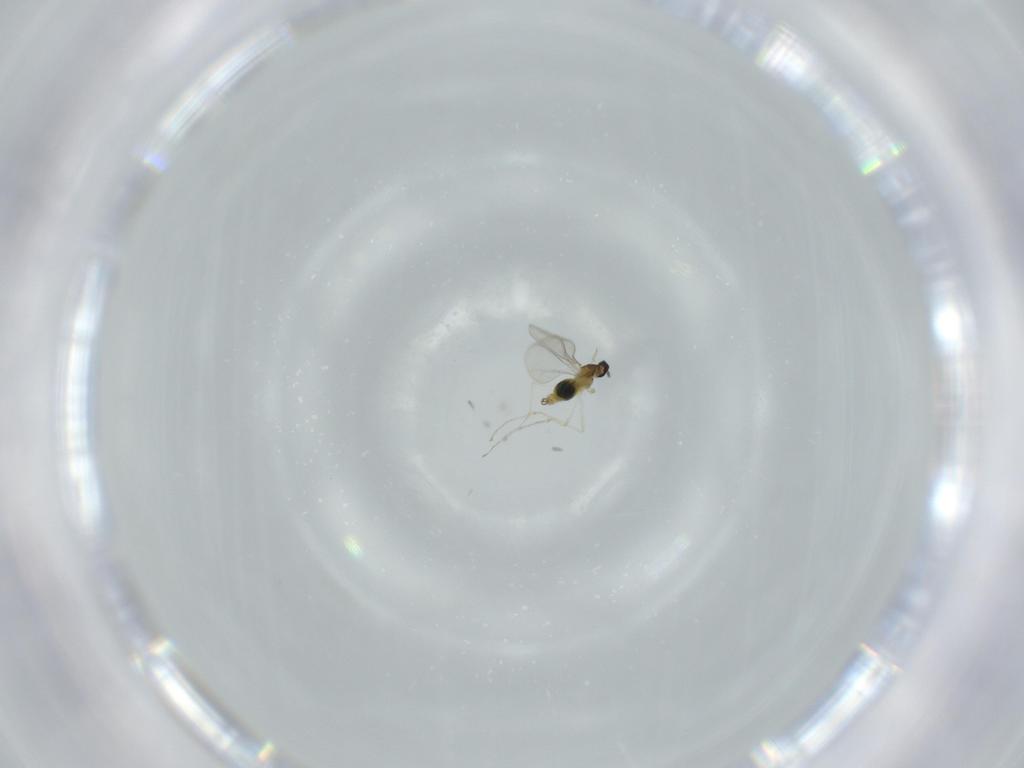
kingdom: Animalia
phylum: Arthropoda
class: Insecta
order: Diptera
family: Cecidomyiidae
